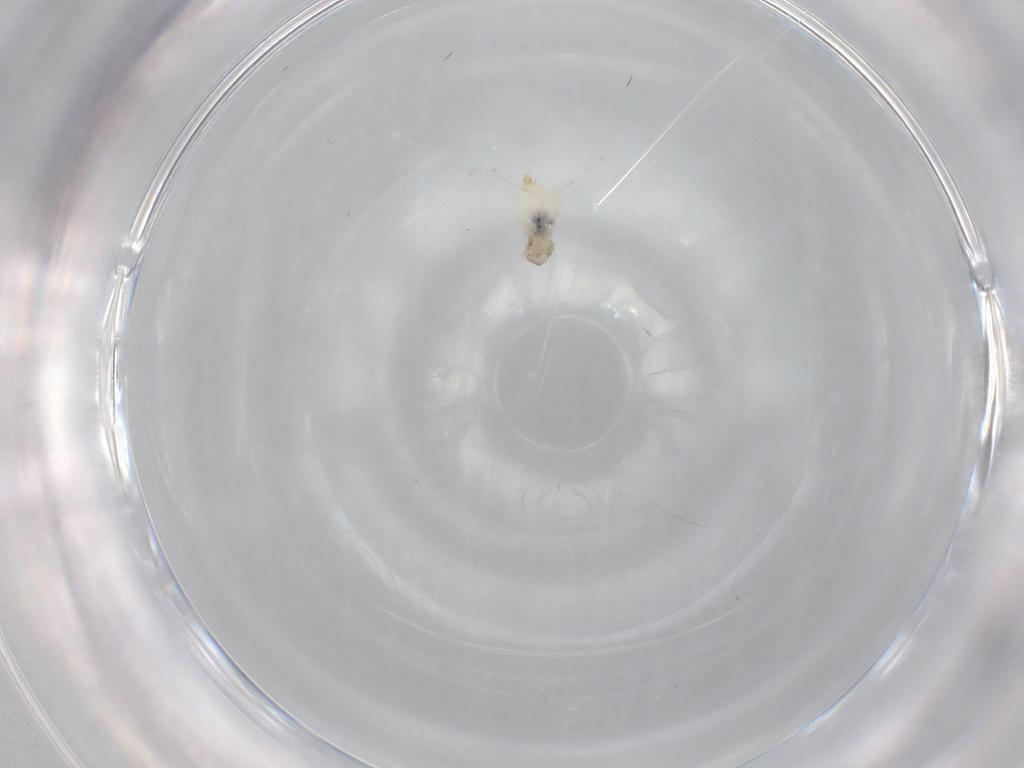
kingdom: Animalia
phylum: Arthropoda
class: Insecta
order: Diptera
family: Cecidomyiidae
